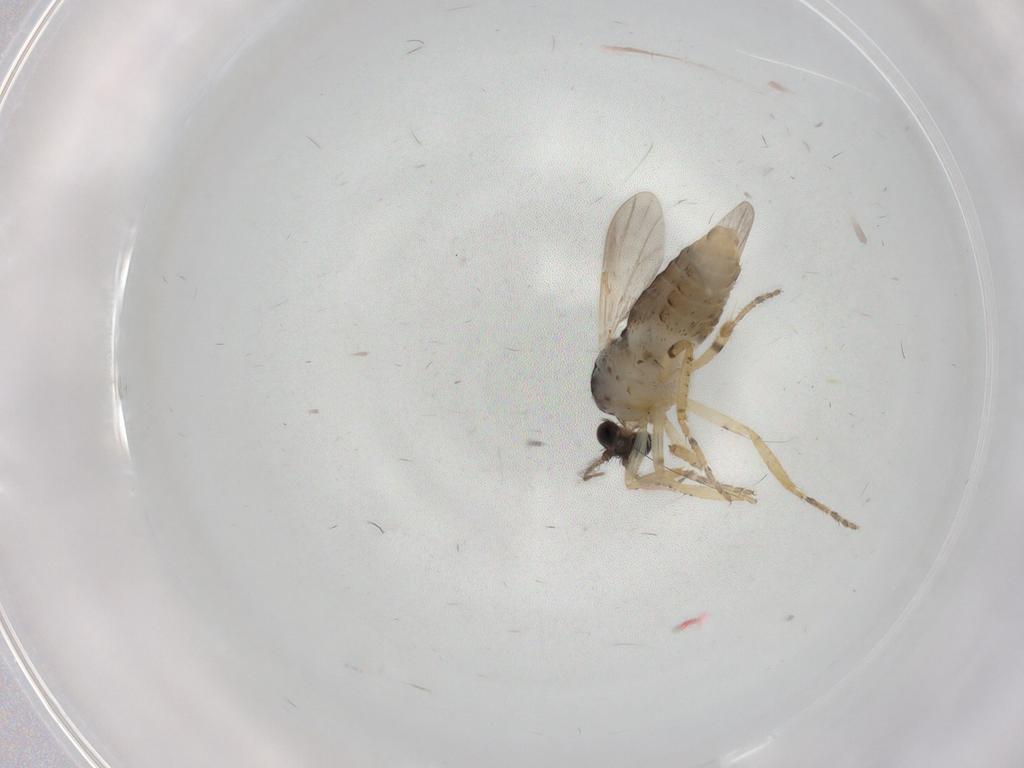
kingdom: Animalia
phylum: Arthropoda
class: Insecta
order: Diptera
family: Ceratopogonidae
